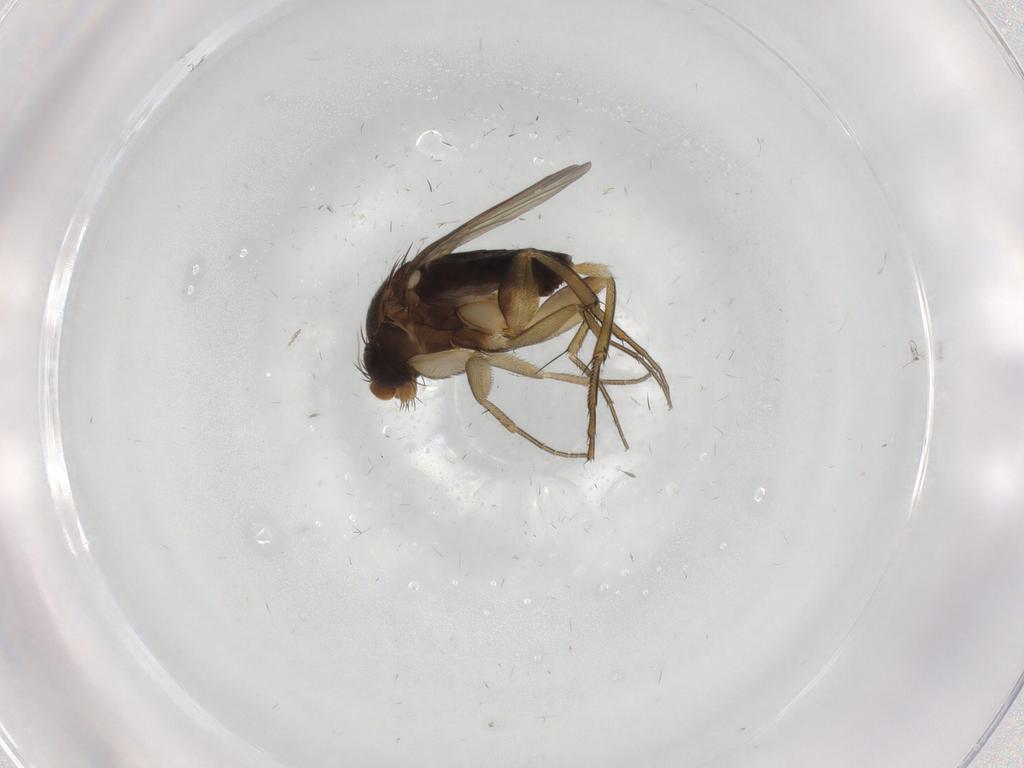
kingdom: Animalia
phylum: Arthropoda
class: Insecta
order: Diptera
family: Phoridae
